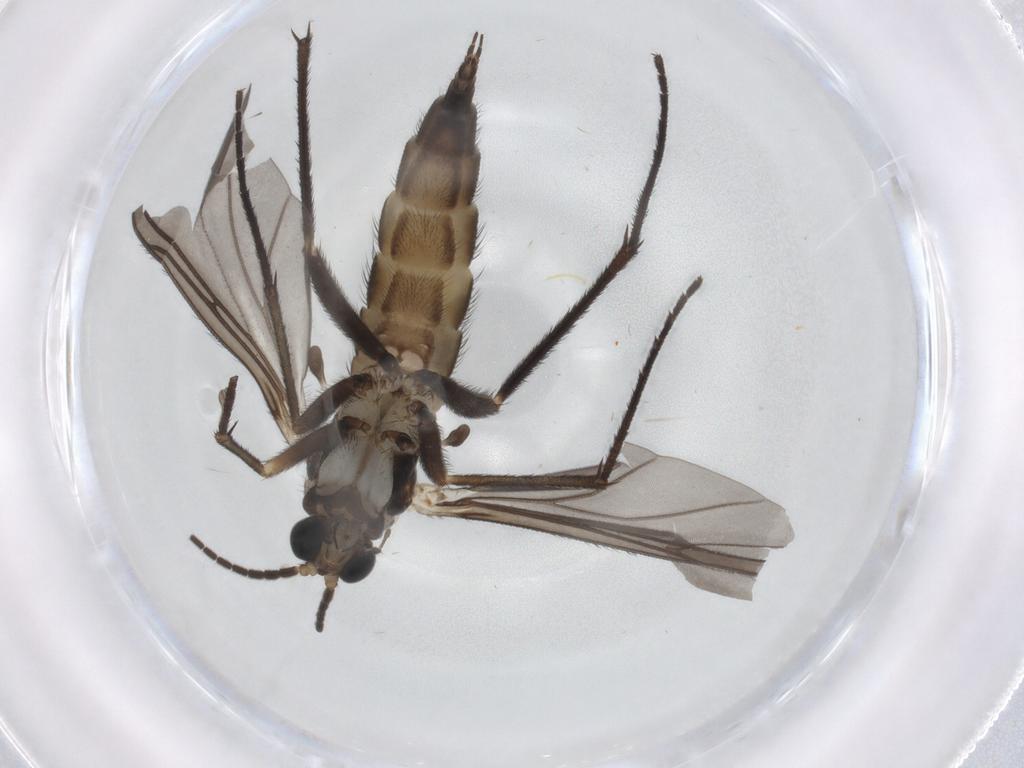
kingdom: Animalia
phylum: Arthropoda
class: Insecta
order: Diptera
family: Sciaridae
